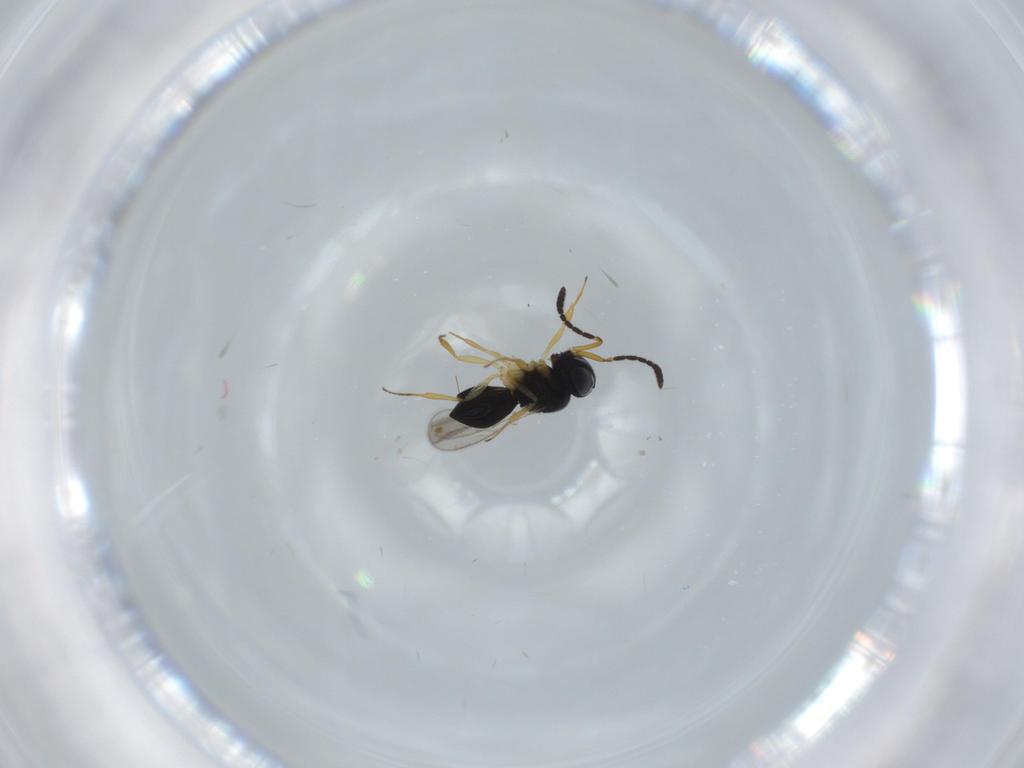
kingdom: Animalia
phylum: Arthropoda
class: Insecta
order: Hymenoptera
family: Scelionidae
